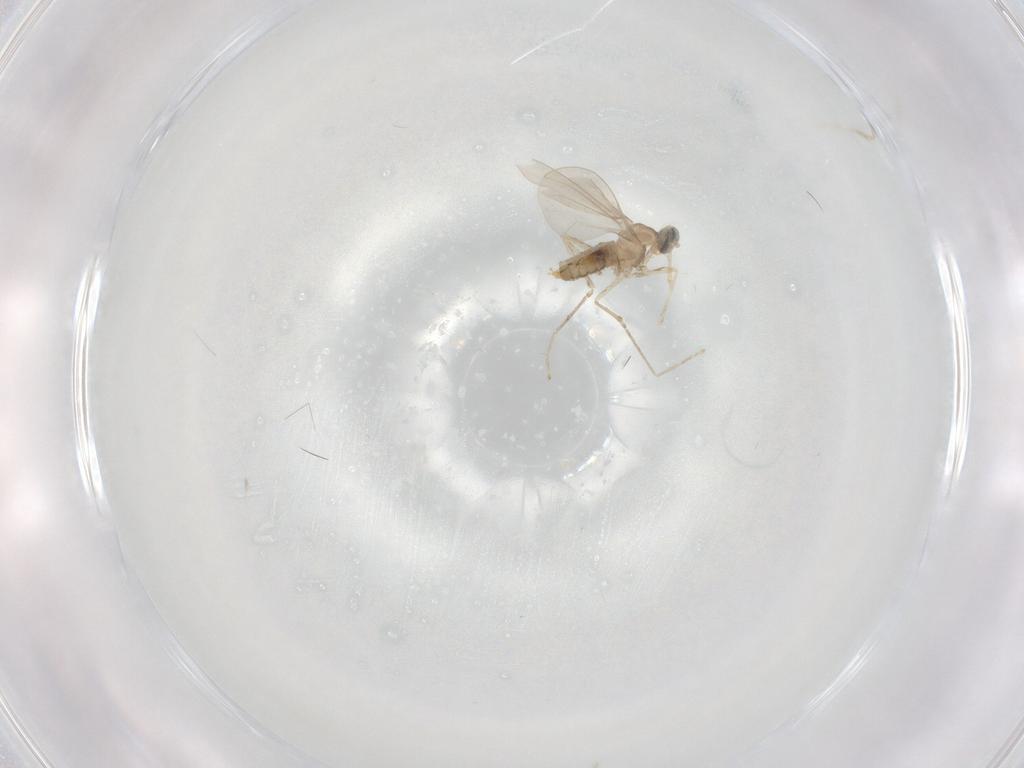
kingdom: Animalia
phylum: Arthropoda
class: Insecta
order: Diptera
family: Cecidomyiidae
